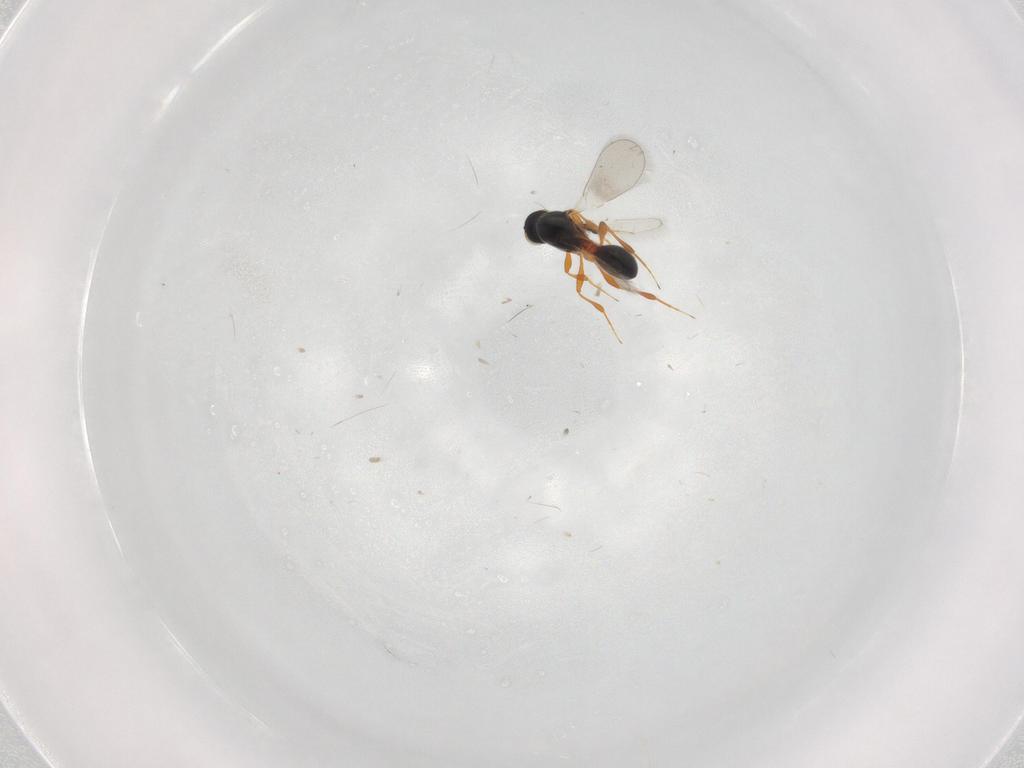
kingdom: Animalia
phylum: Arthropoda
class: Insecta
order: Hymenoptera
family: Platygastridae
